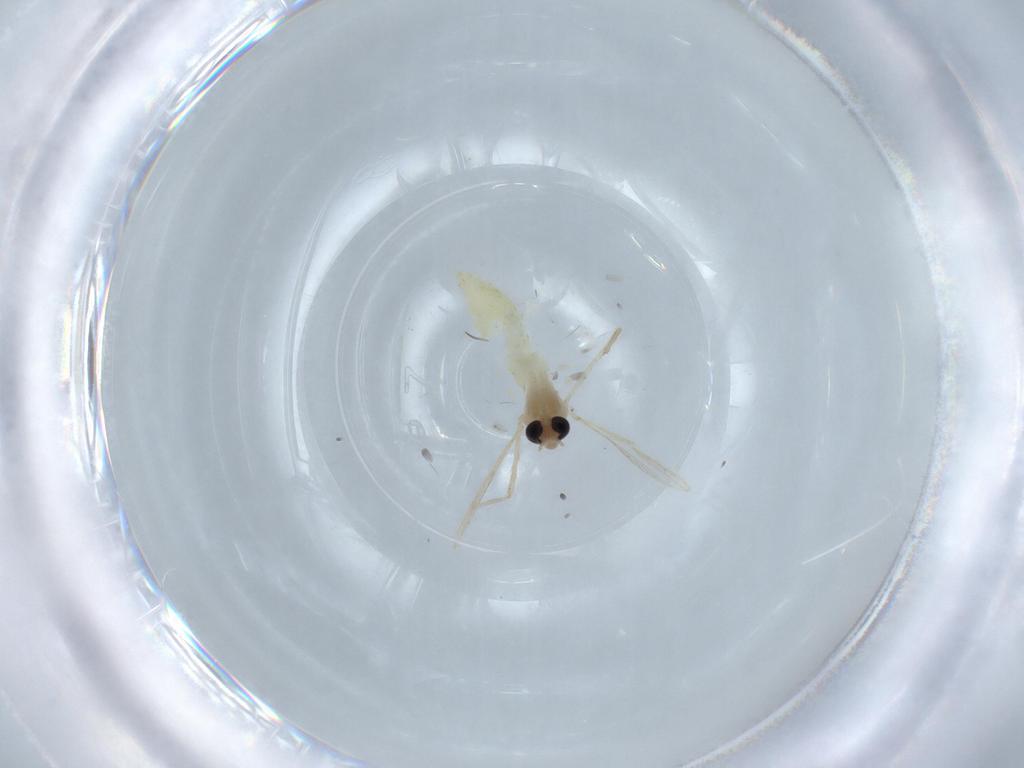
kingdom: Animalia
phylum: Arthropoda
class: Insecta
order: Diptera
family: Chironomidae
